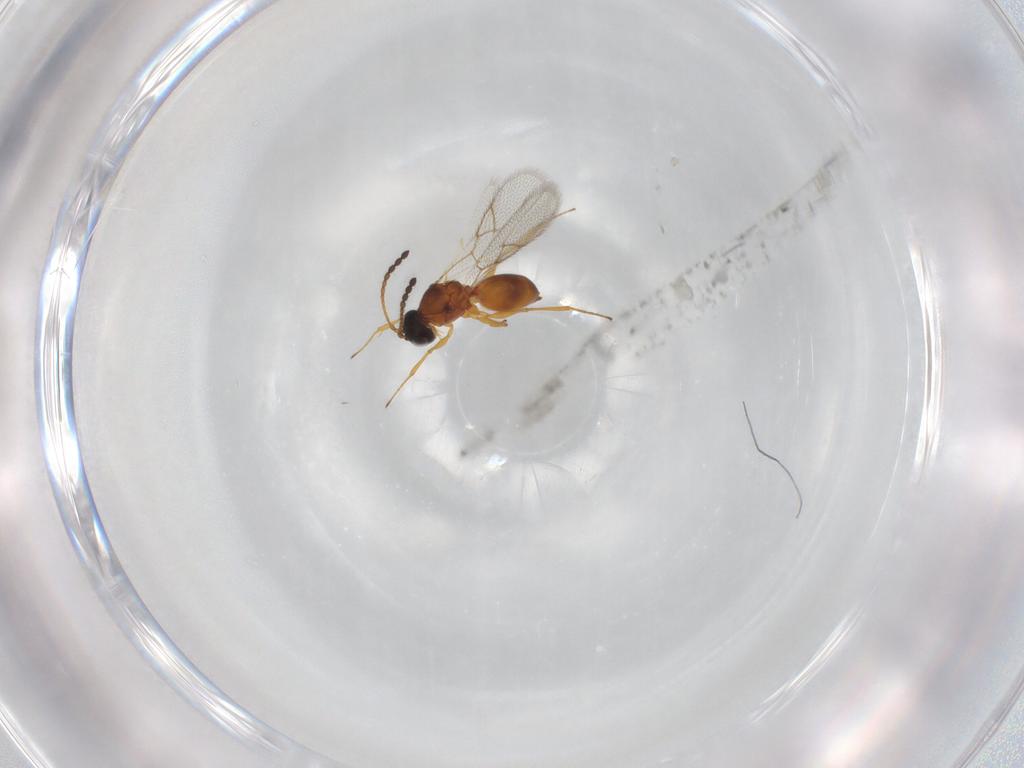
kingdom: Animalia
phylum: Arthropoda
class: Insecta
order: Hymenoptera
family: Figitidae
